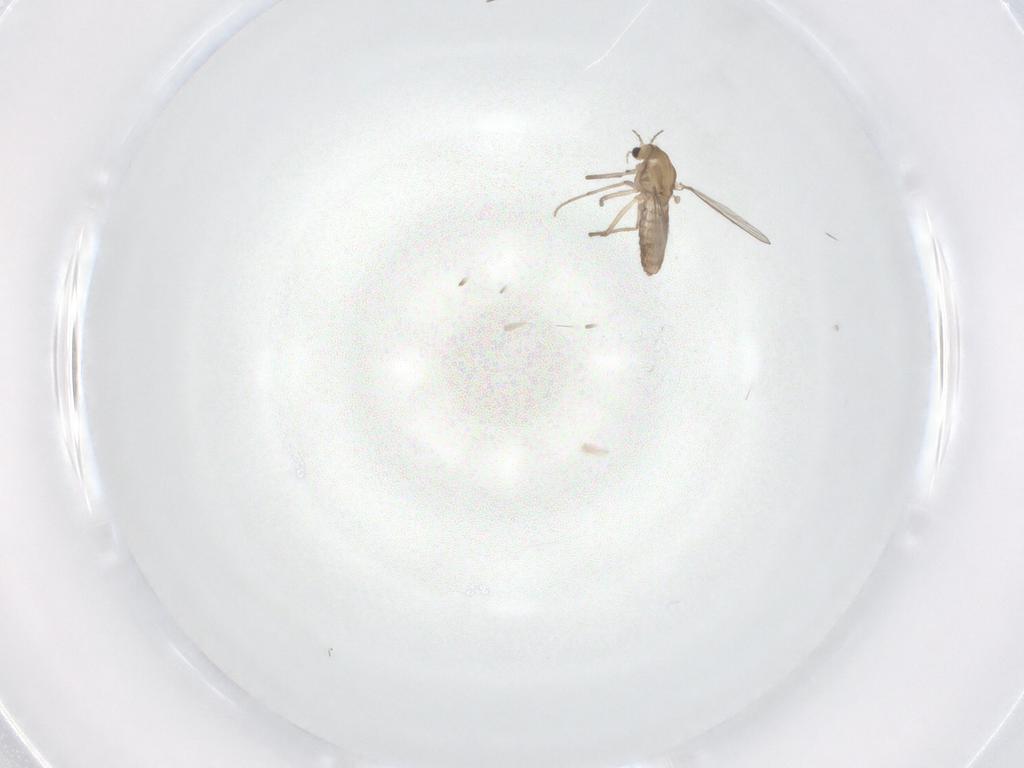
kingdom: Animalia
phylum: Arthropoda
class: Insecta
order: Diptera
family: Chironomidae
